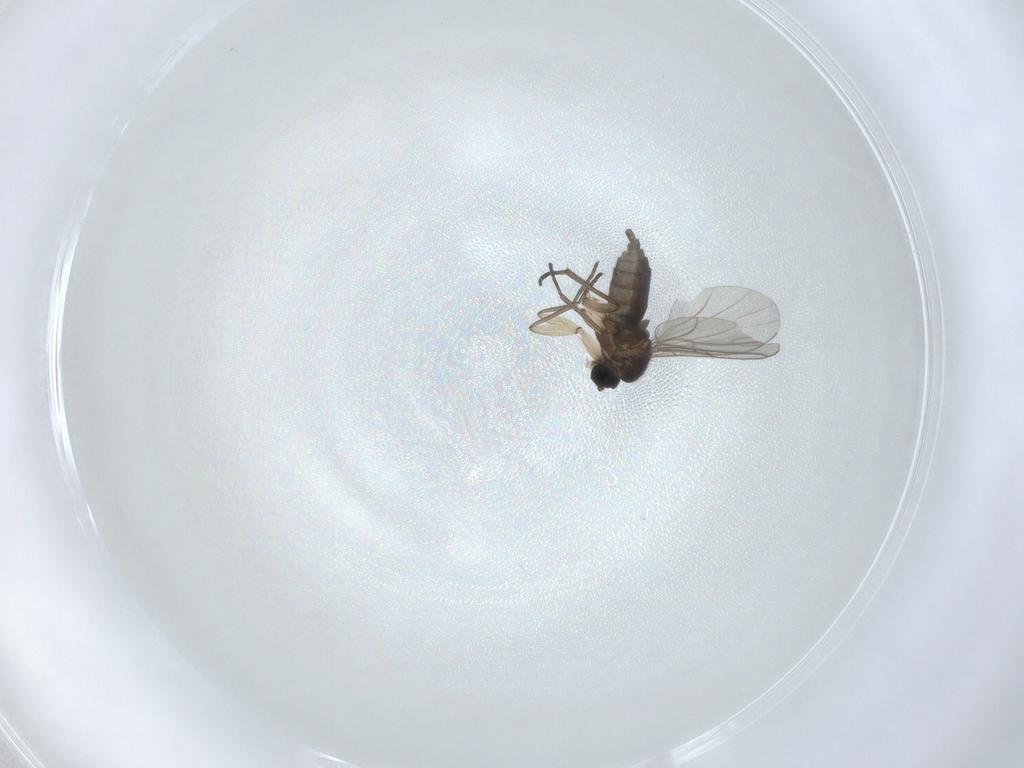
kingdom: Animalia
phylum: Arthropoda
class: Insecta
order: Diptera
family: Sciaridae
